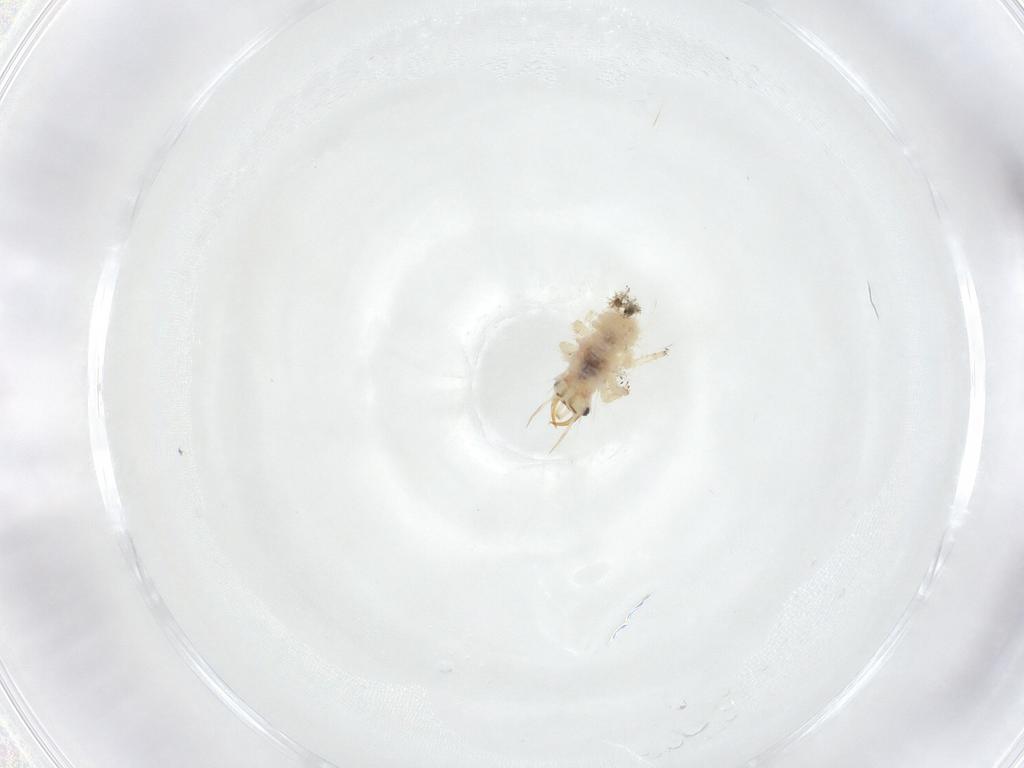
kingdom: Animalia
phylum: Arthropoda
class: Insecta
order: Neuroptera
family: Chrysopidae
